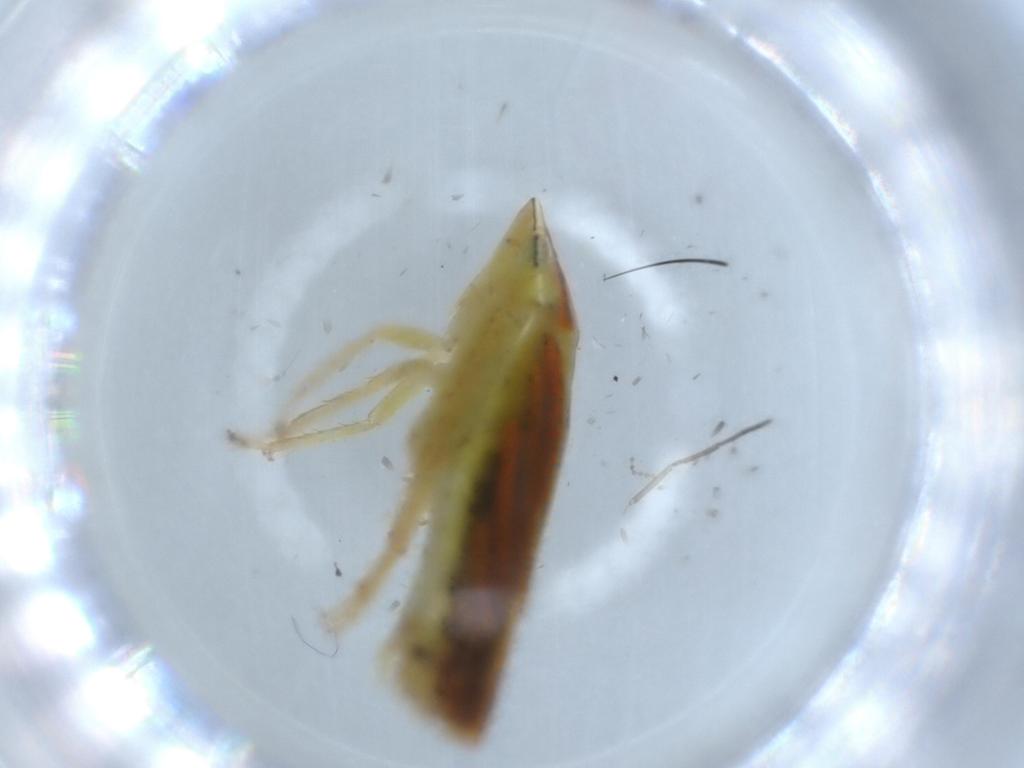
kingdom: Animalia
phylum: Arthropoda
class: Insecta
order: Hemiptera
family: Cicadellidae
